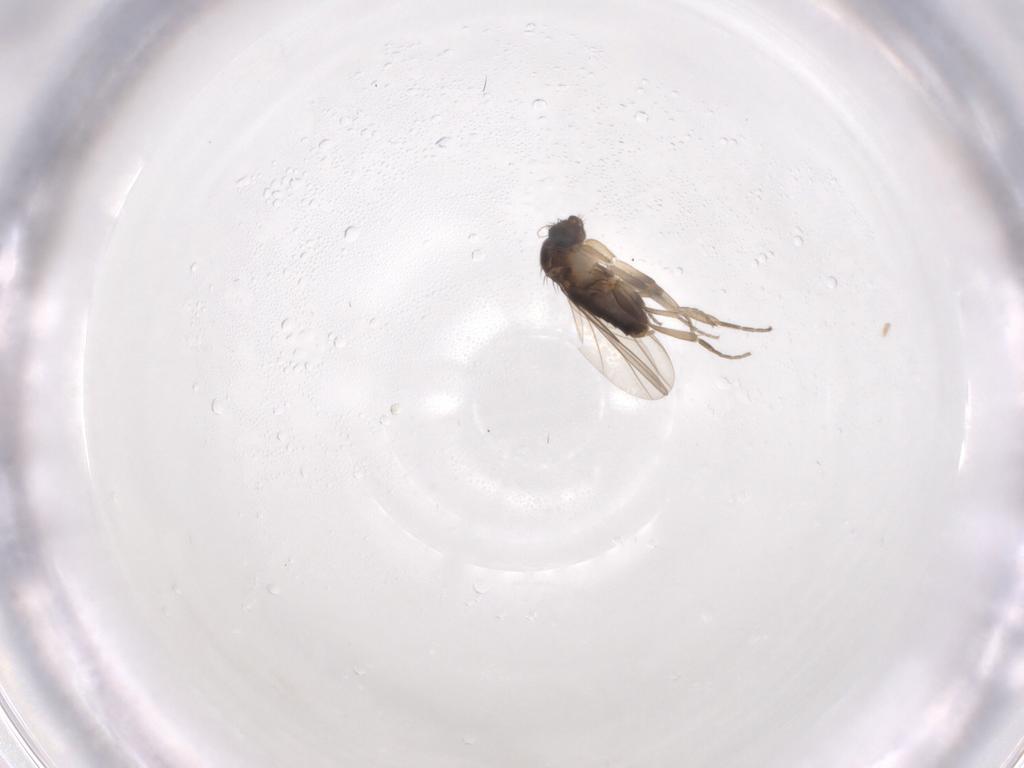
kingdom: Animalia
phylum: Arthropoda
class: Insecta
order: Diptera
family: Phoridae
